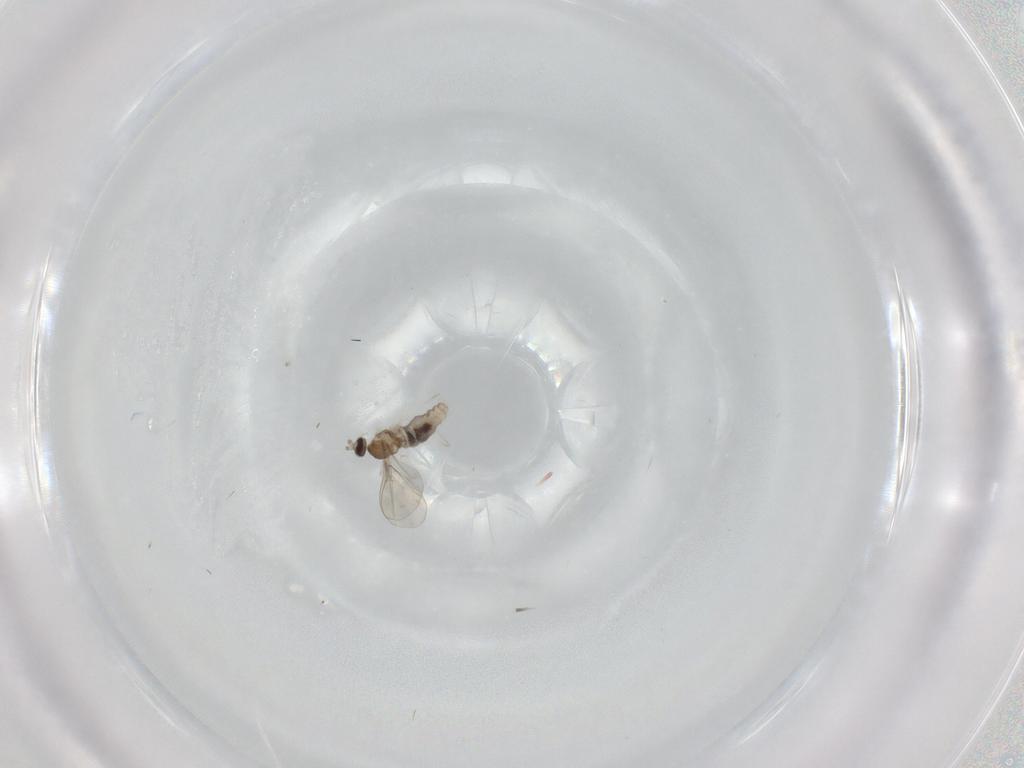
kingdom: Animalia
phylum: Arthropoda
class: Insecta
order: Diptera
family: Cecidomyiidae
